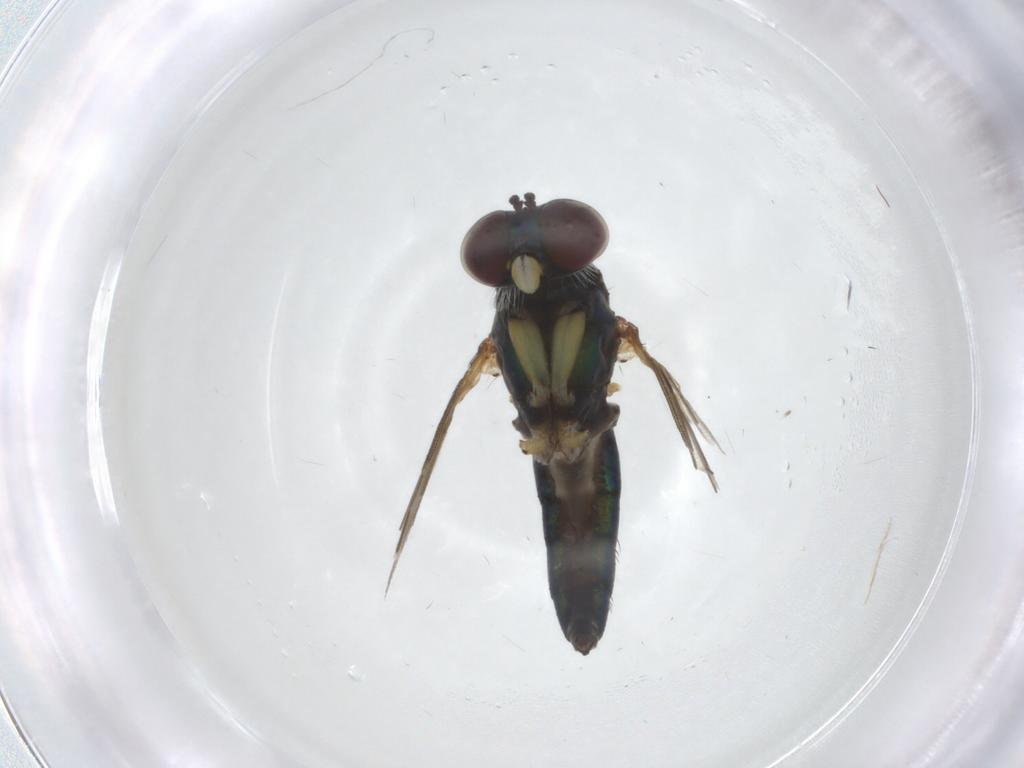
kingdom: Animalia
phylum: Arthropoda
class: Insecta
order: Diptera
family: Dolichopodidae
